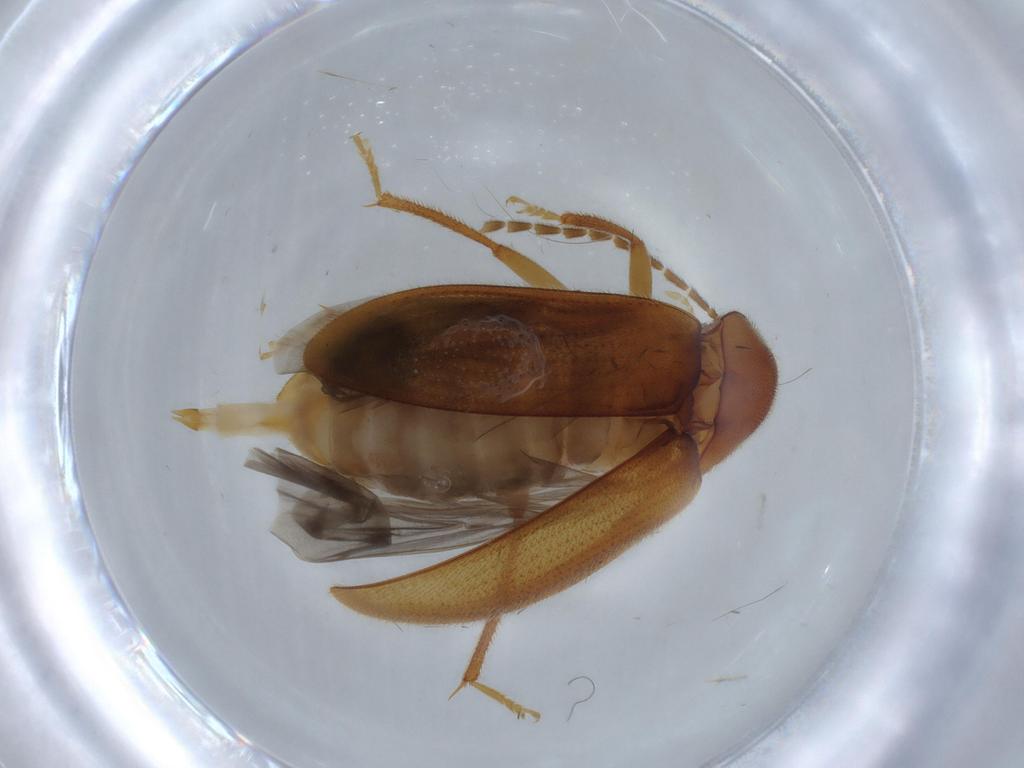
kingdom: Animalia
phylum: Arthropoda
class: Insecta
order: Coleoptera
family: Ptilodactylidae
